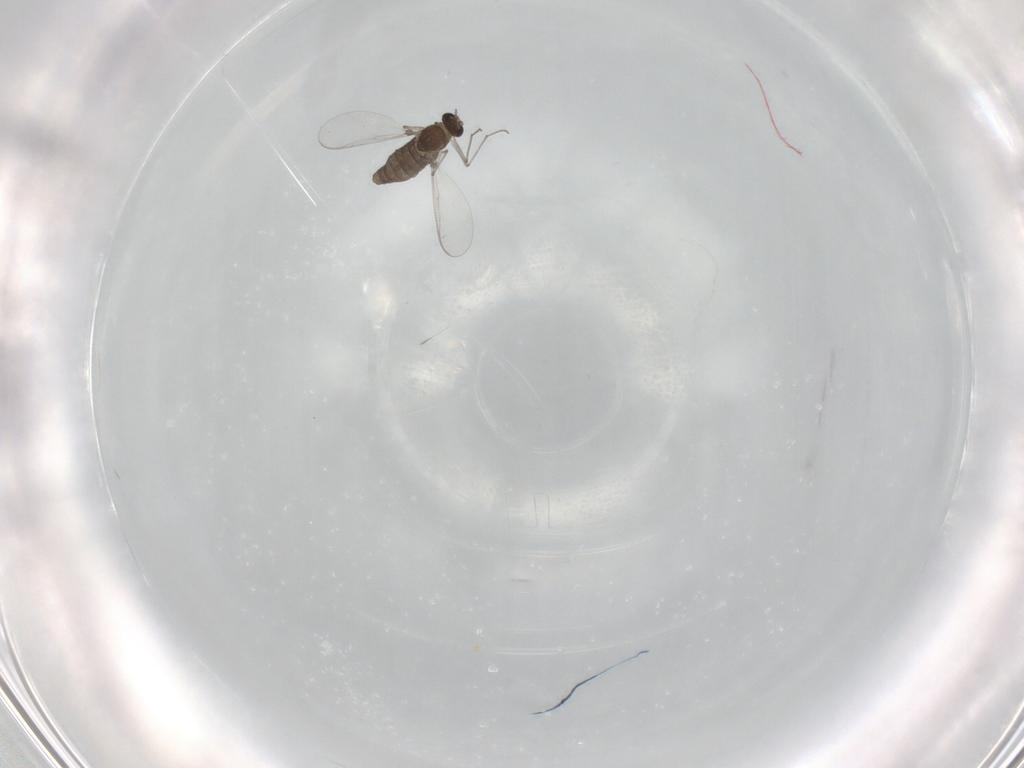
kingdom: Animalia
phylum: Arthropoda
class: Insecta
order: Diptera
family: Chironomidae
